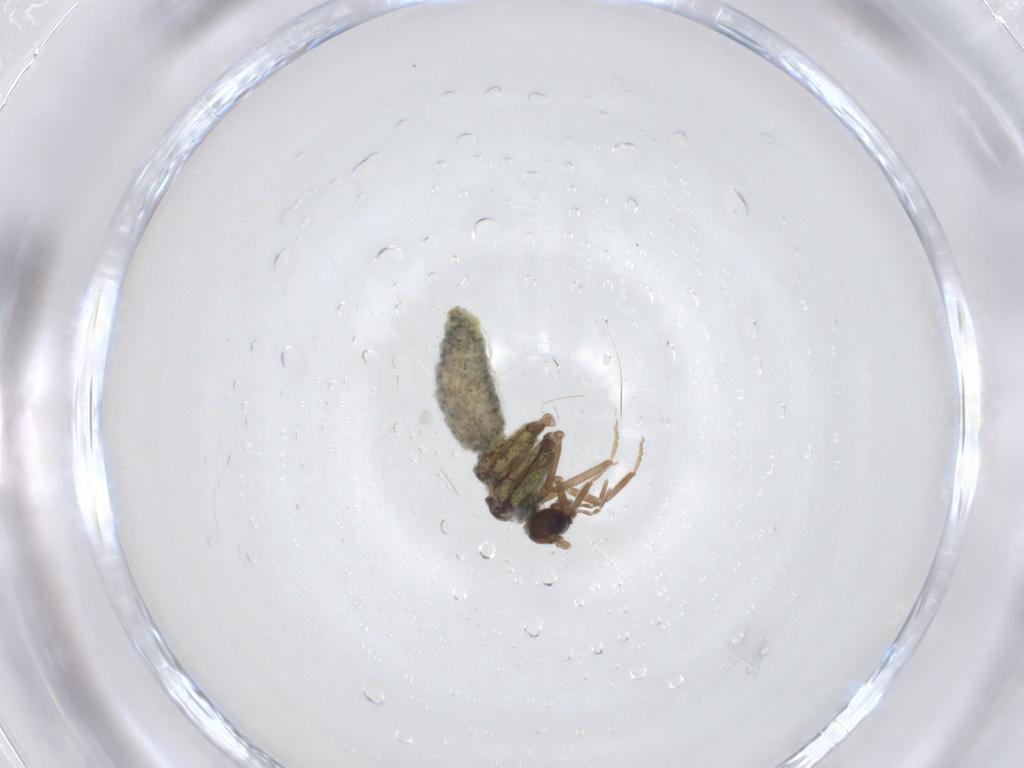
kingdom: Animalia
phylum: Arthropoda
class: Insecta
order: Neuroptera
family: Coniopterygidae
